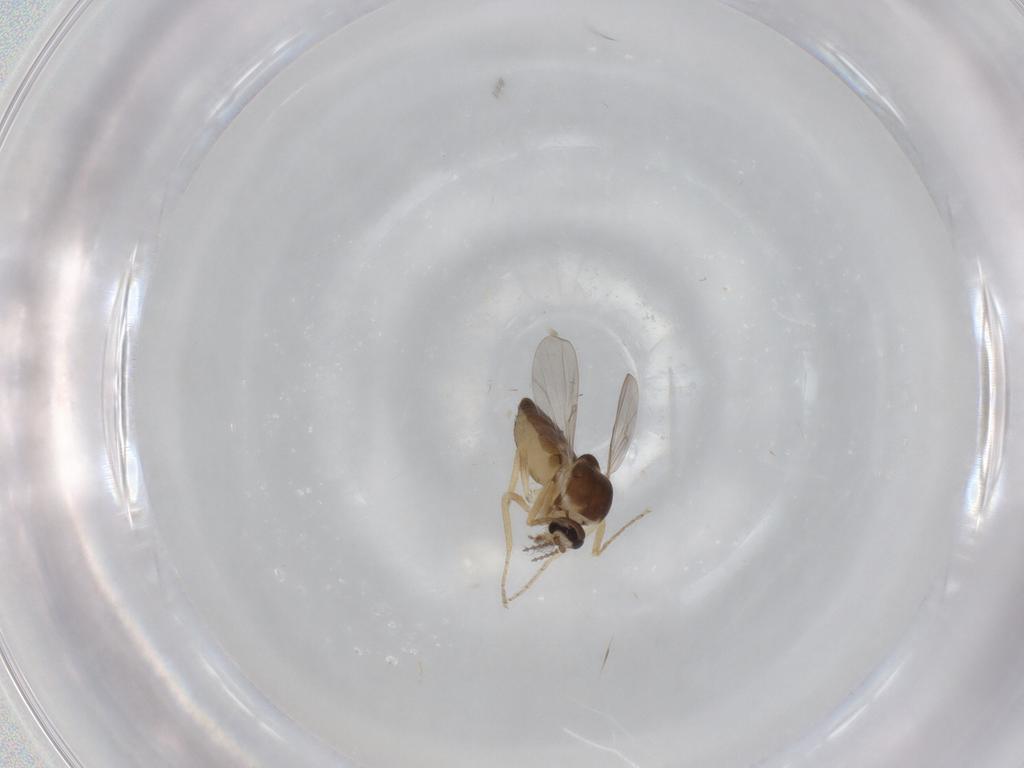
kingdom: Animalia
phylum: Arthropoda
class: Insecta
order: Diptera
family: Ceratopogonidae
